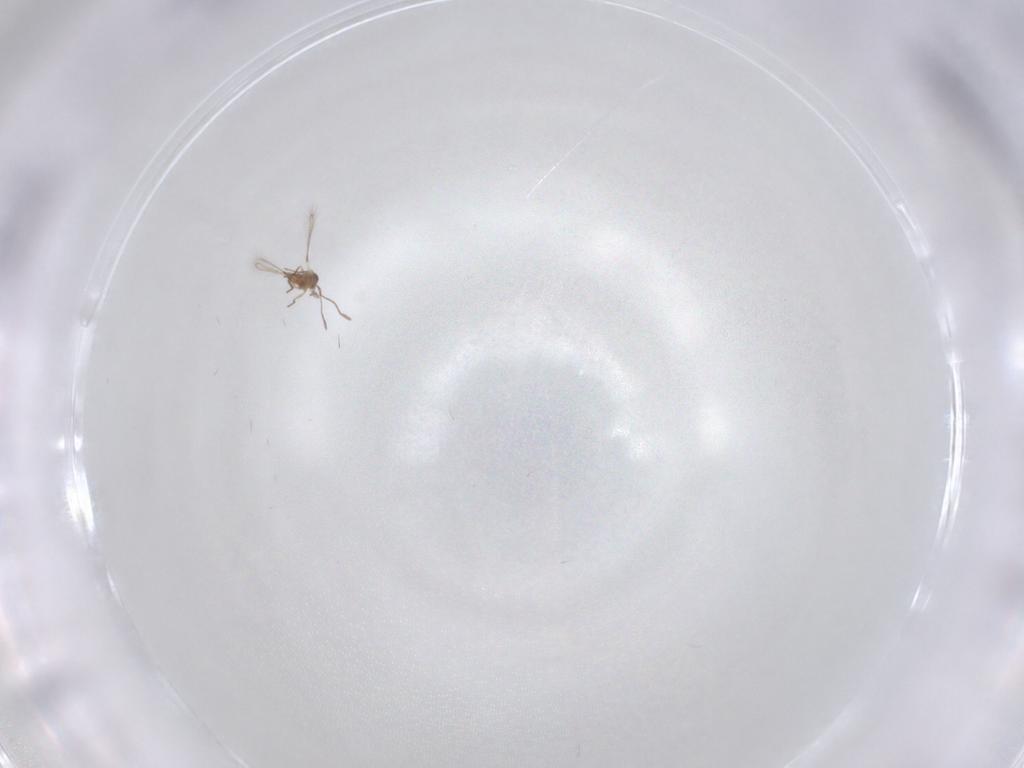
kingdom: Animalia
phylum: Arthropoda
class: Insecta
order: Hymenoptera
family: Mymaridae
